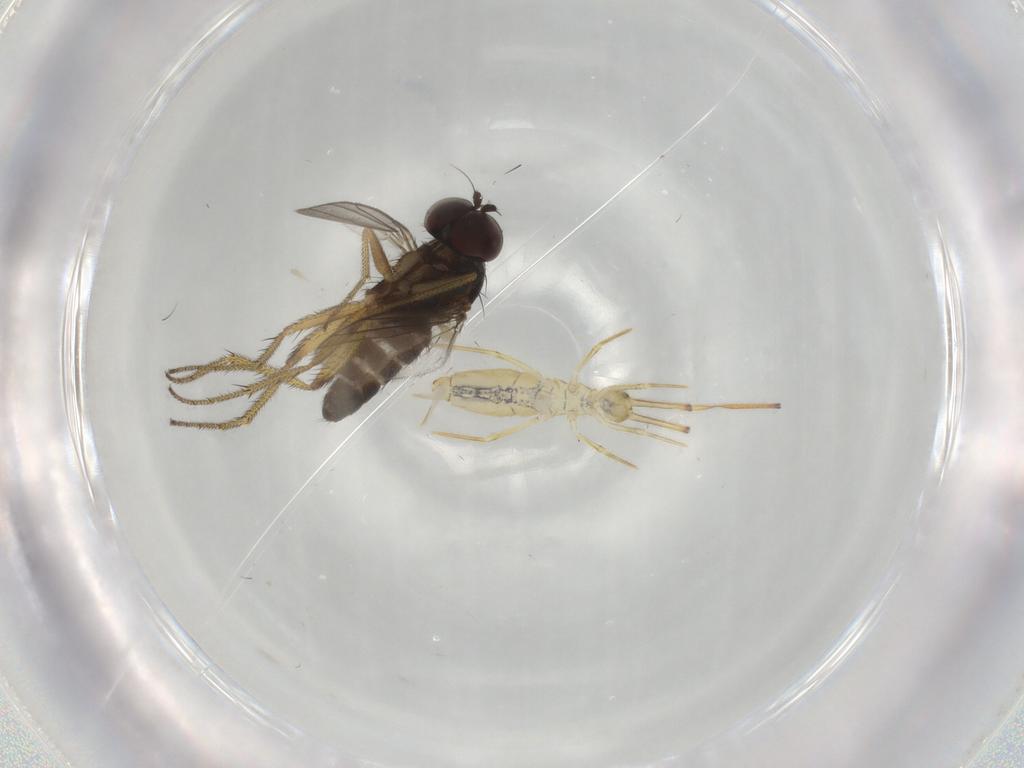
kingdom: Animalia
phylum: Arthropoda
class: Insecta
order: Diptera
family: Dolichopodidae
